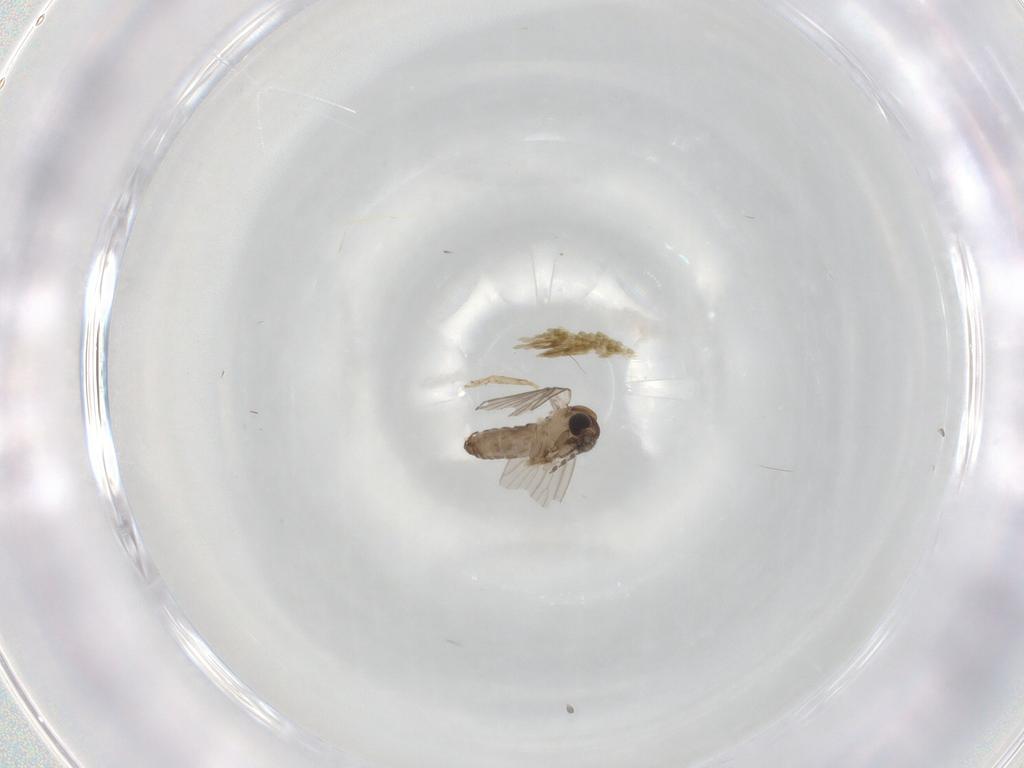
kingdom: Animalia
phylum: Arthropoda
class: Insecta
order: Diptera
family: Psychodidae
